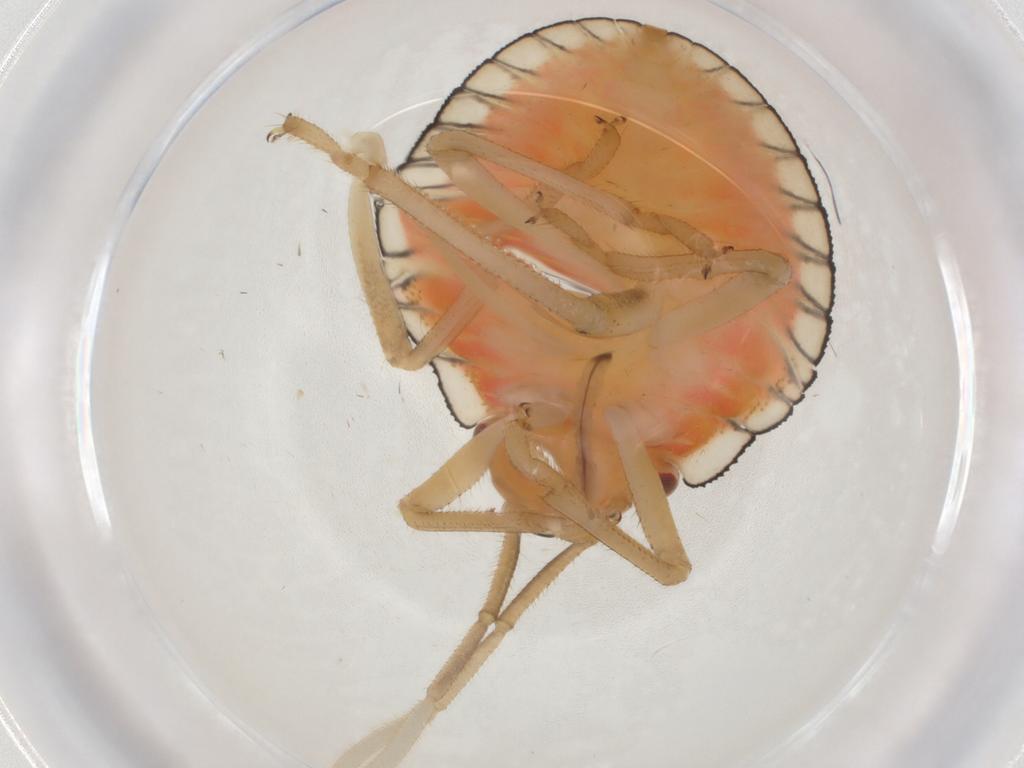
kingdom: Animalia
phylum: Arthropoda
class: Insecta
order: Hemiptera
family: Pentatomidae
